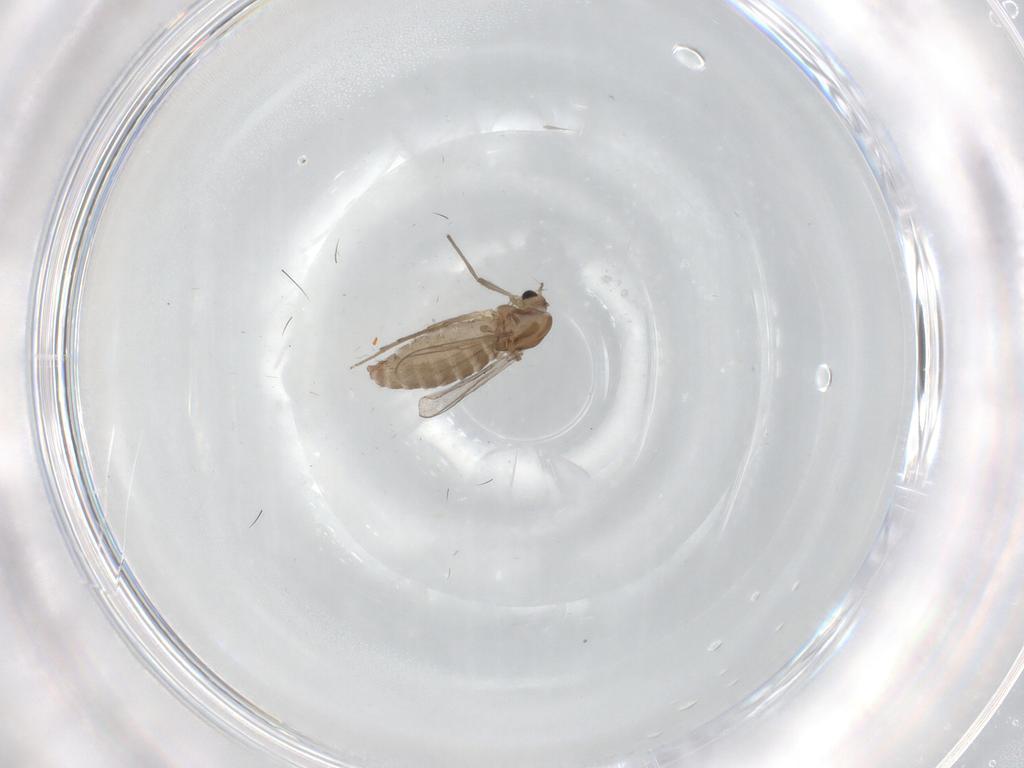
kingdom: Animalia
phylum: Arthropoda
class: Insecta
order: Diptera
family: Chironomidae
